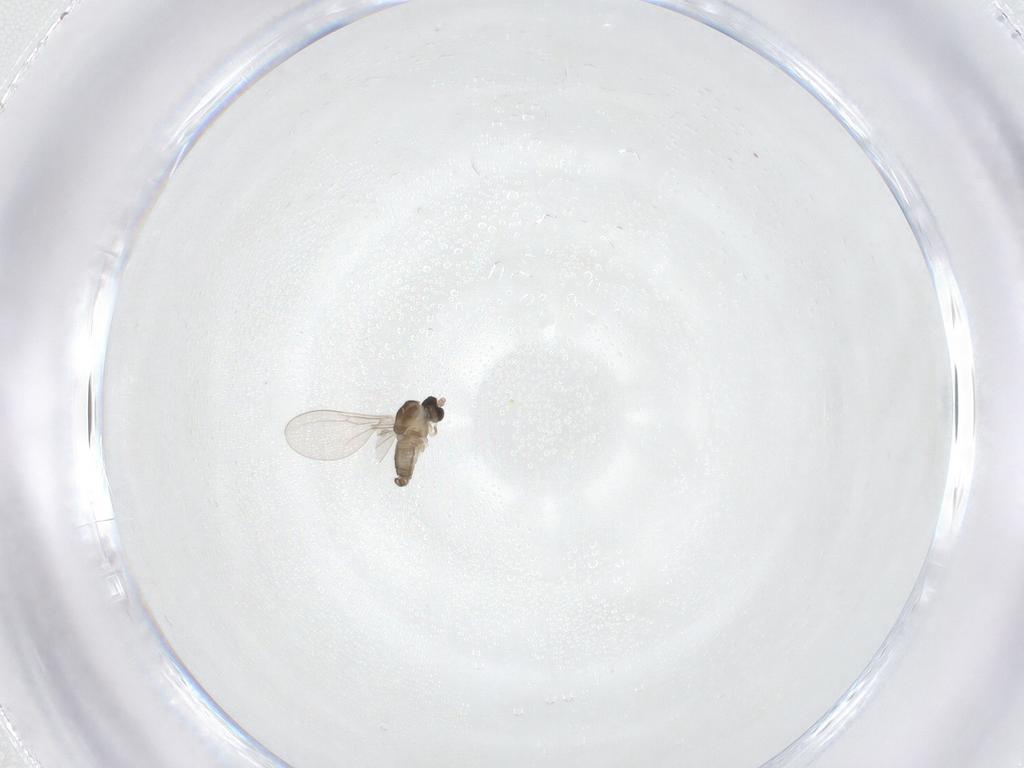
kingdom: Animalia
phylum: Arthropoda
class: Insecta
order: Diptera
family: Cecidomyiidae
